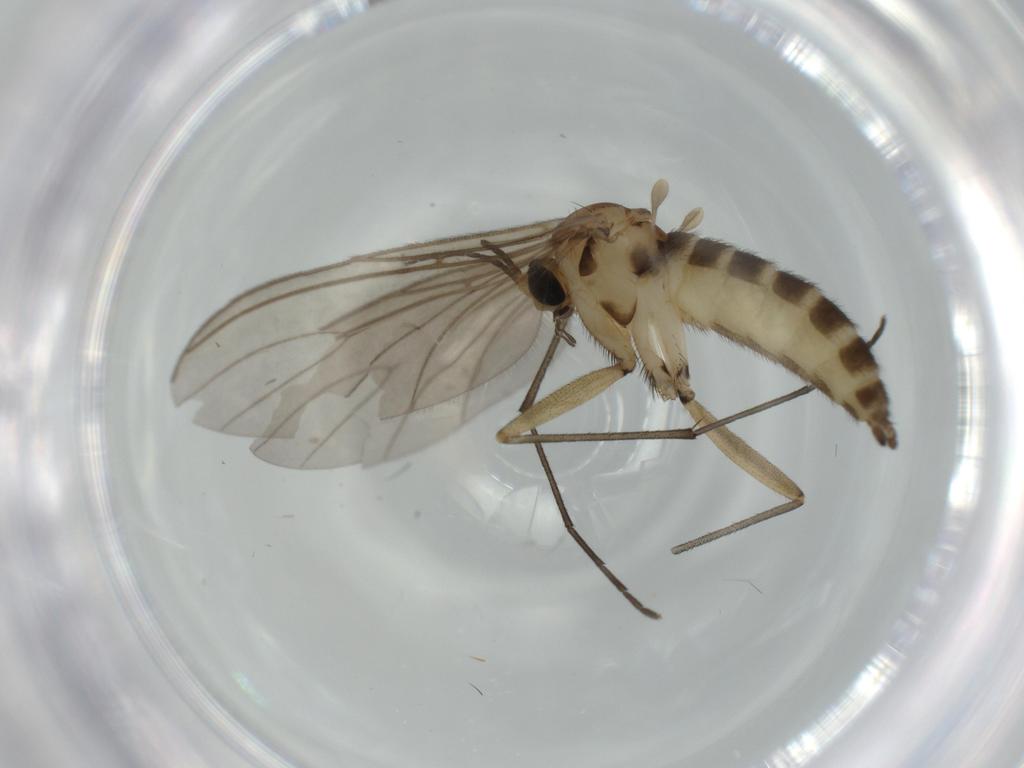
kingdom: Animalia
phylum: Arthropoda
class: Insecta
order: Diptera
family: Sciaridae
